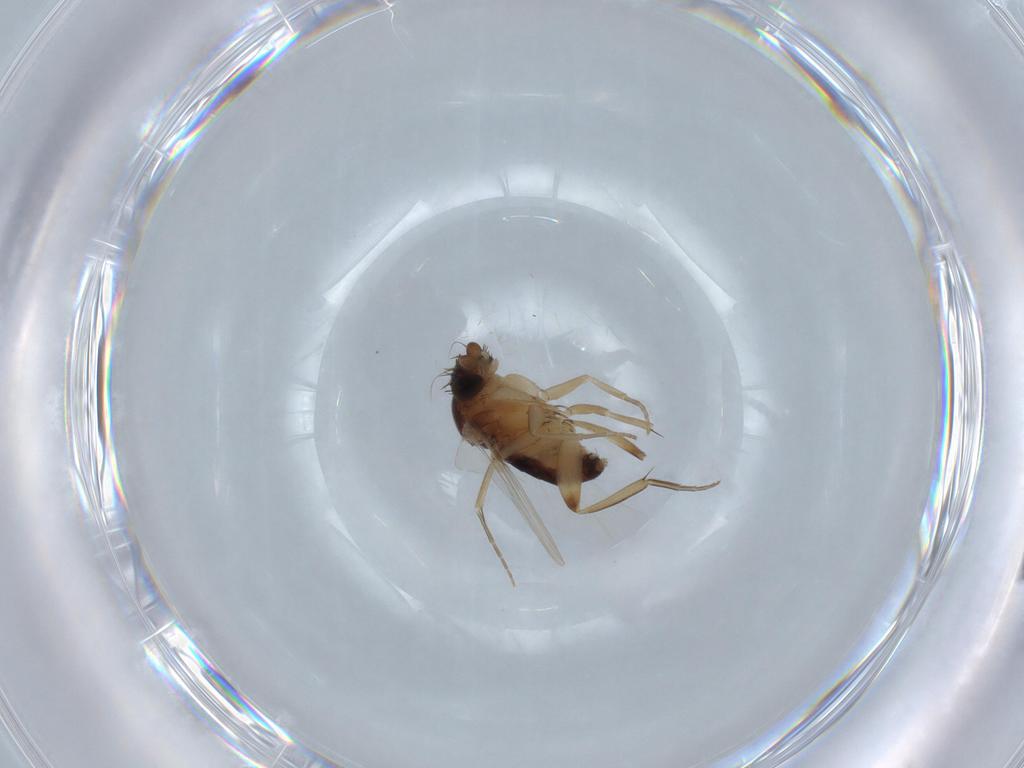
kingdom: Animalia
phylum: Arthropoda
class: Insecta
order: Diptera
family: Phoridae
